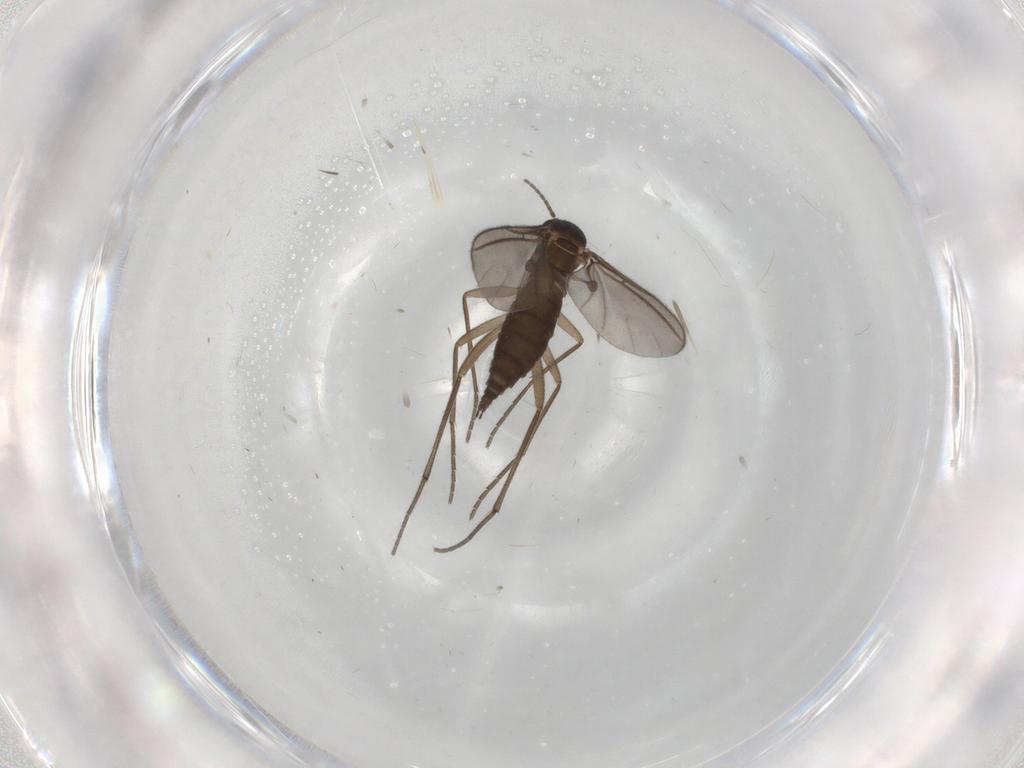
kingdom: Animalia
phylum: Arthropoda
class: Insecta
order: Diptera
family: Sciaridae
